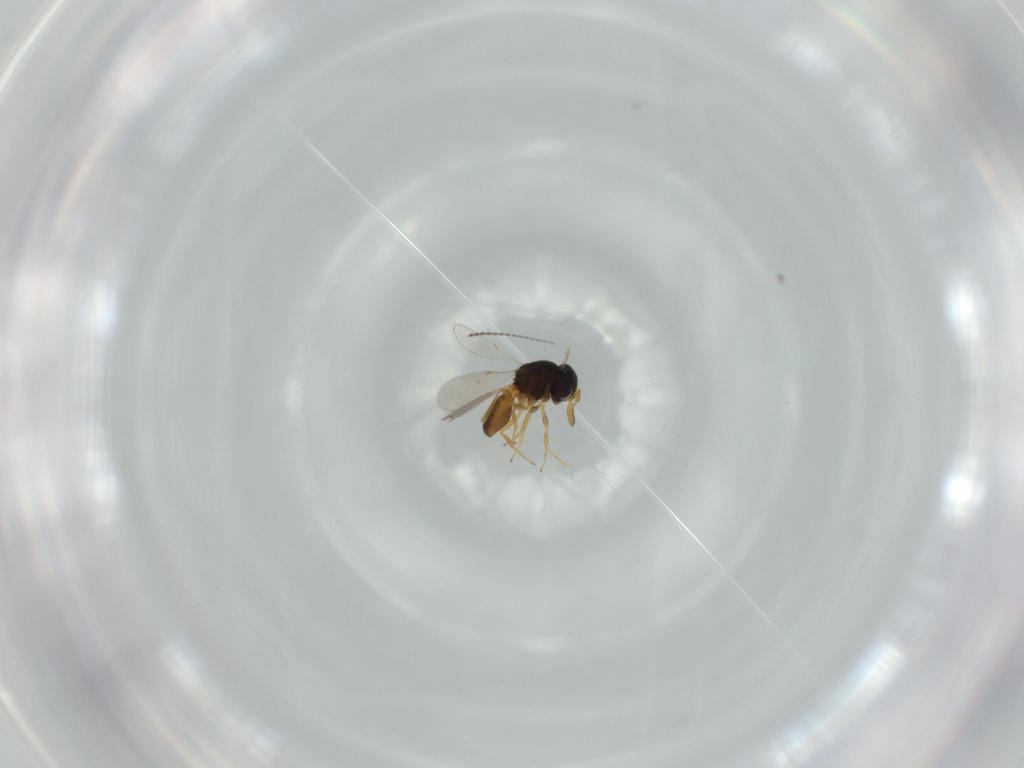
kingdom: Animalia
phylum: Arthropoda
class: Insecta
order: Hymenoptera
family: Scelionidae
